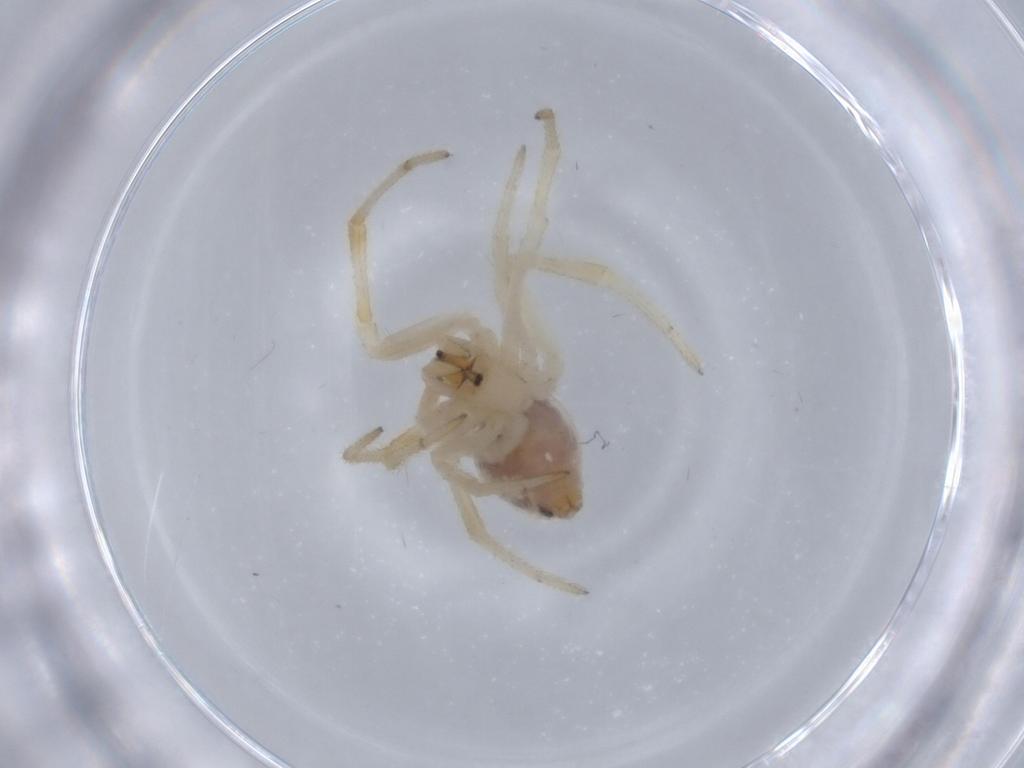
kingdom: Animalia
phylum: Arthropoda
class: Arachnida
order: Araneae
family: Theridiidae
